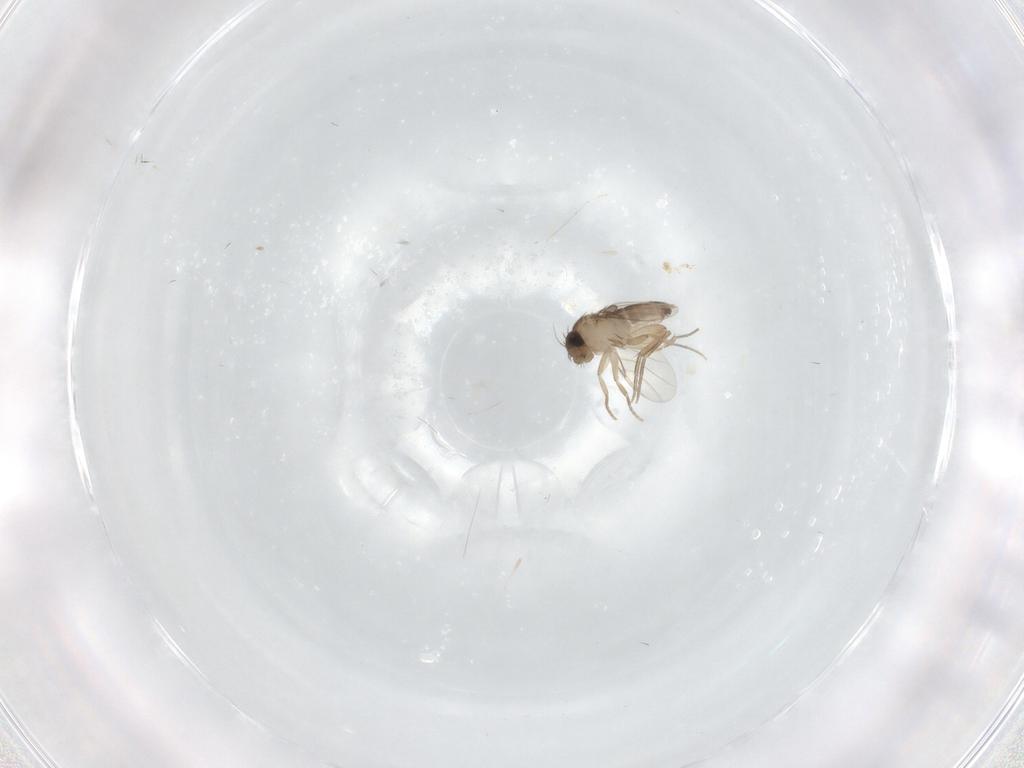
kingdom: Animalia
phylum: Arthropoda
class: Insecta
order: Diptera
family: Phoridae
